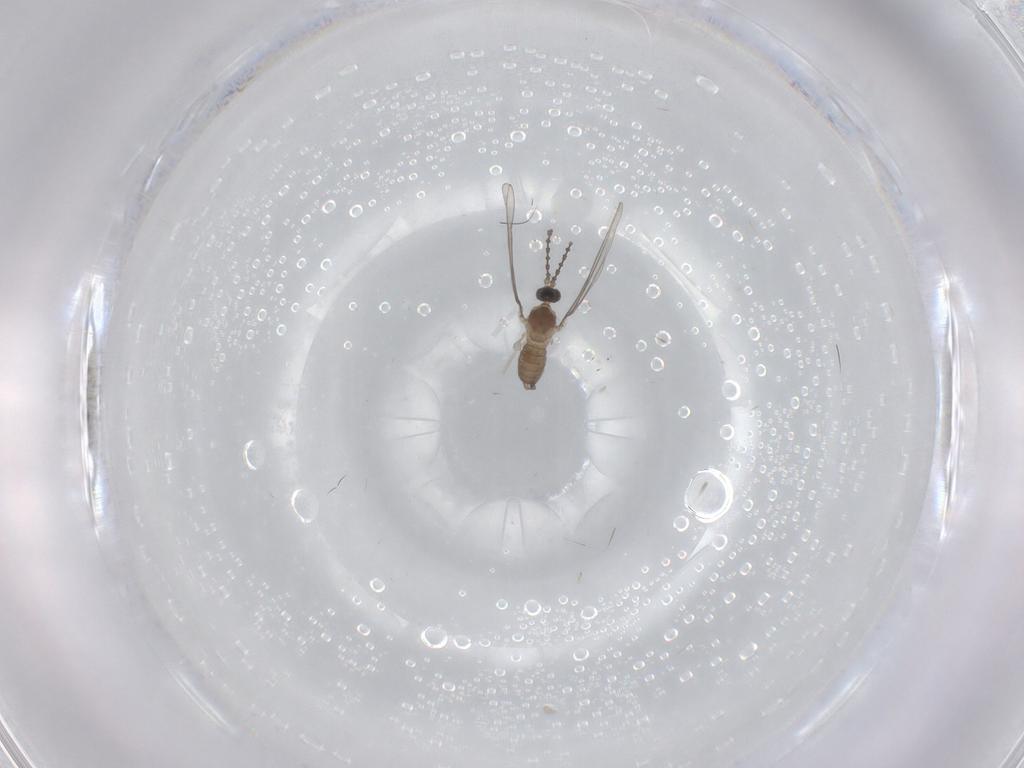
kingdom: Animalia
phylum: Arthropoda
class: Insecta
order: Diptera
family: Cecidomyiidae
